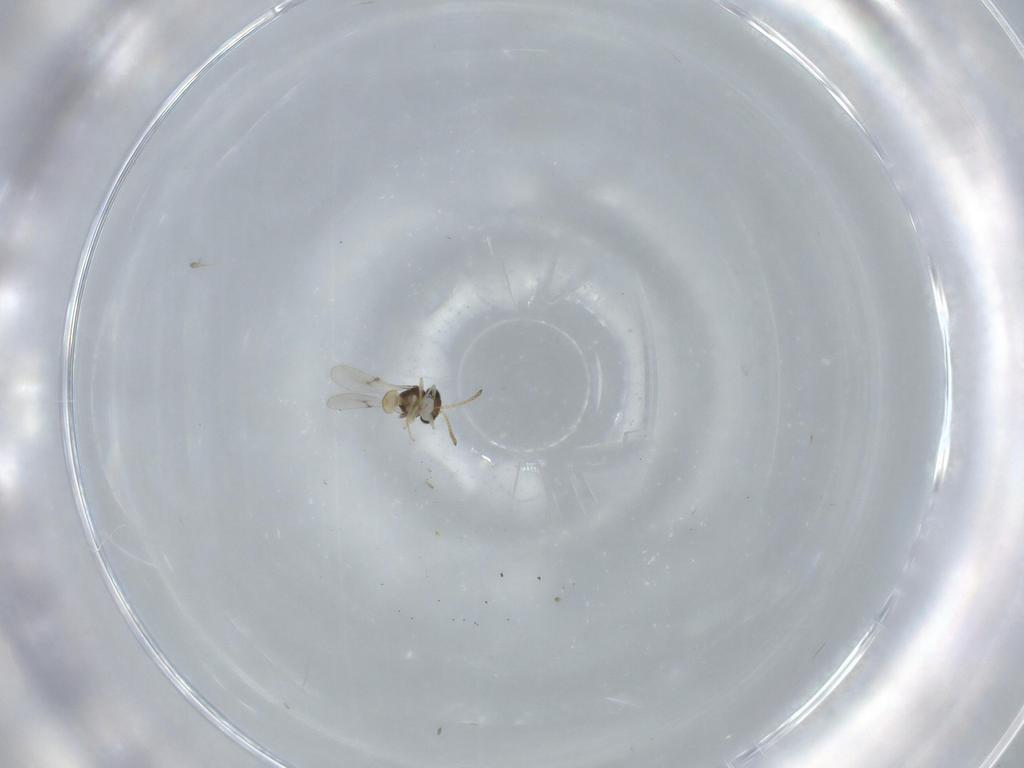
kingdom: Animalia
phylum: Arthropoda
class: Insecta
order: Hymenoptera
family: Scelionidae
